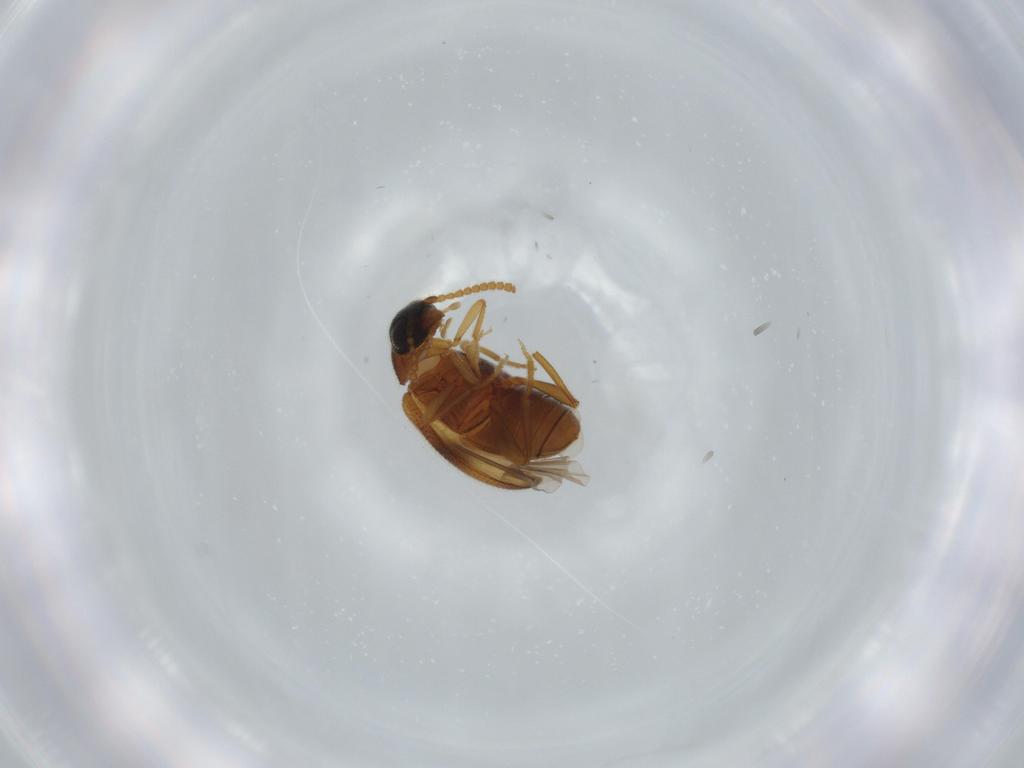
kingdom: Animalia
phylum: Arthropoda
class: Insecta
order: Coleoptera
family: Aderidae
